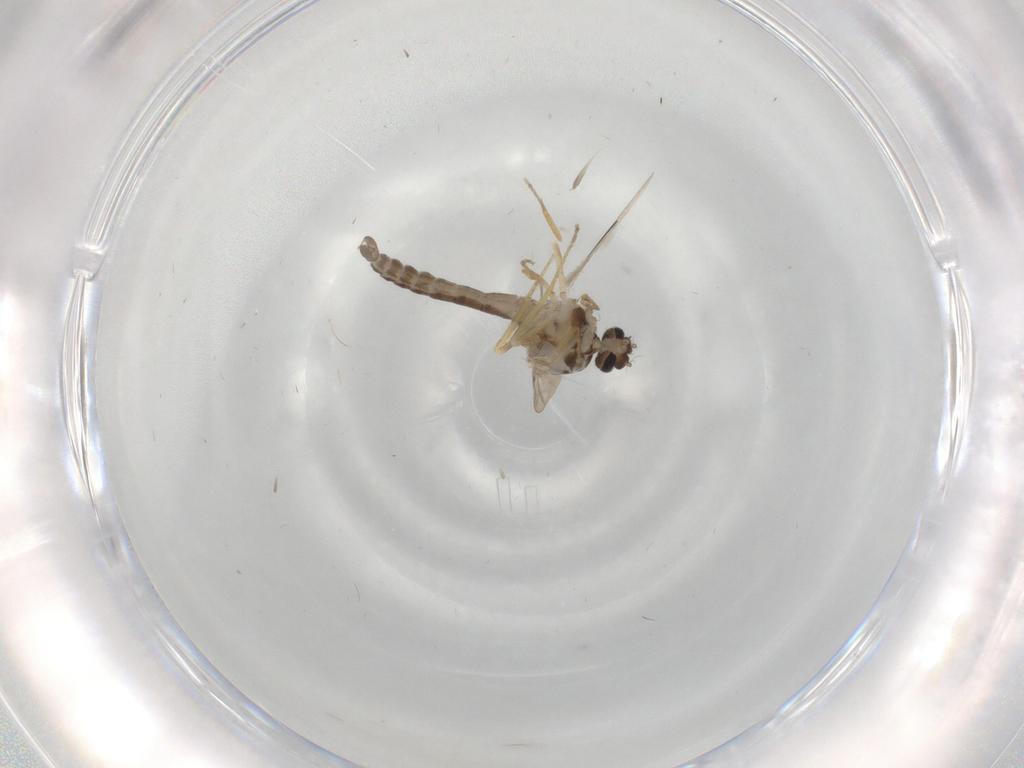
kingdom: Animalia
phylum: Arthropoda
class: Insecta
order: Diptera
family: Ceratopogonidae
